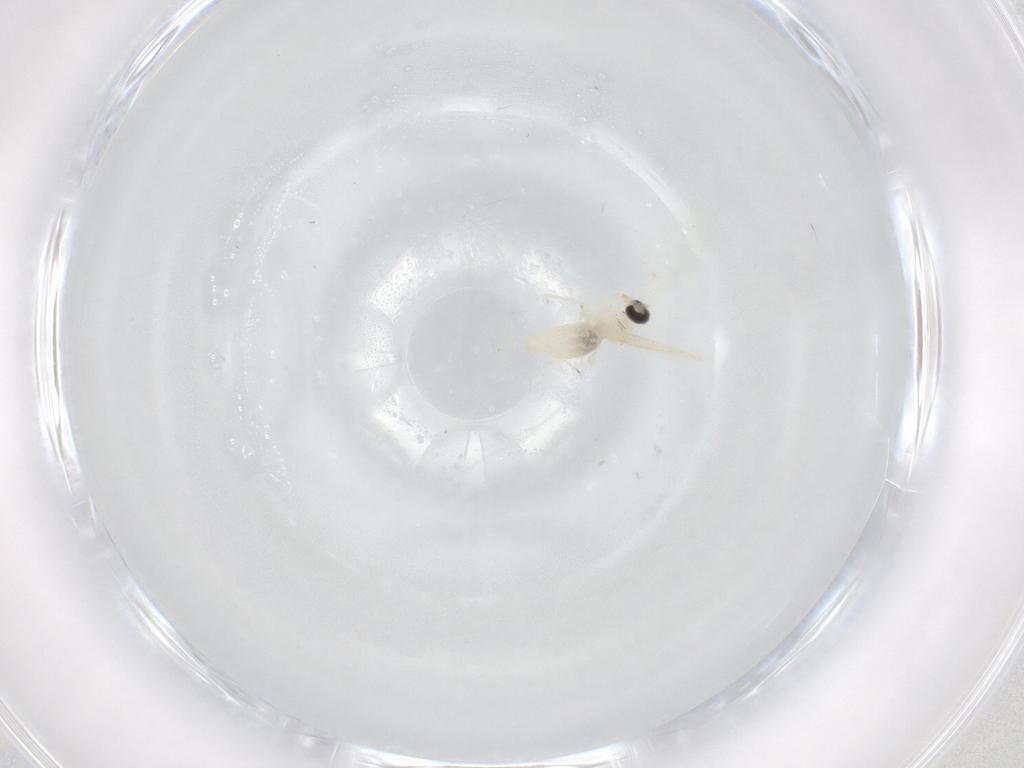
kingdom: Animalia
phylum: Arthropoda
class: Insecta
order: Diptera
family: Cecidomyiidae
